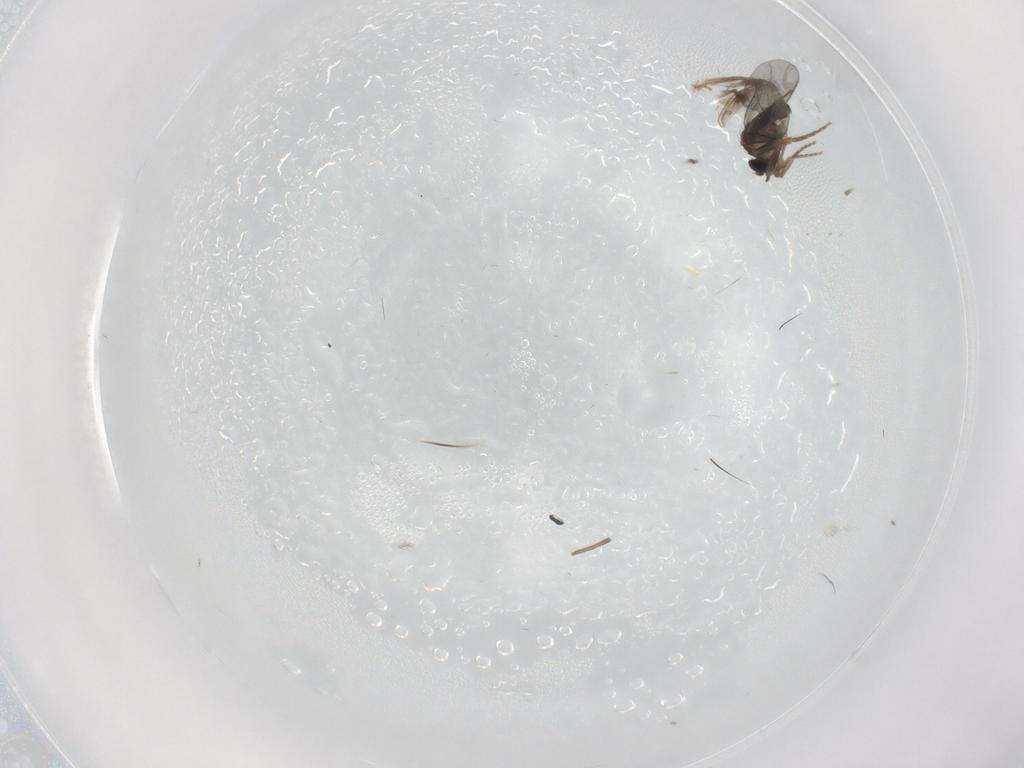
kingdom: Animalia
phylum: Arthropoda
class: Insecta
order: Diptera
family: Sciaridae
